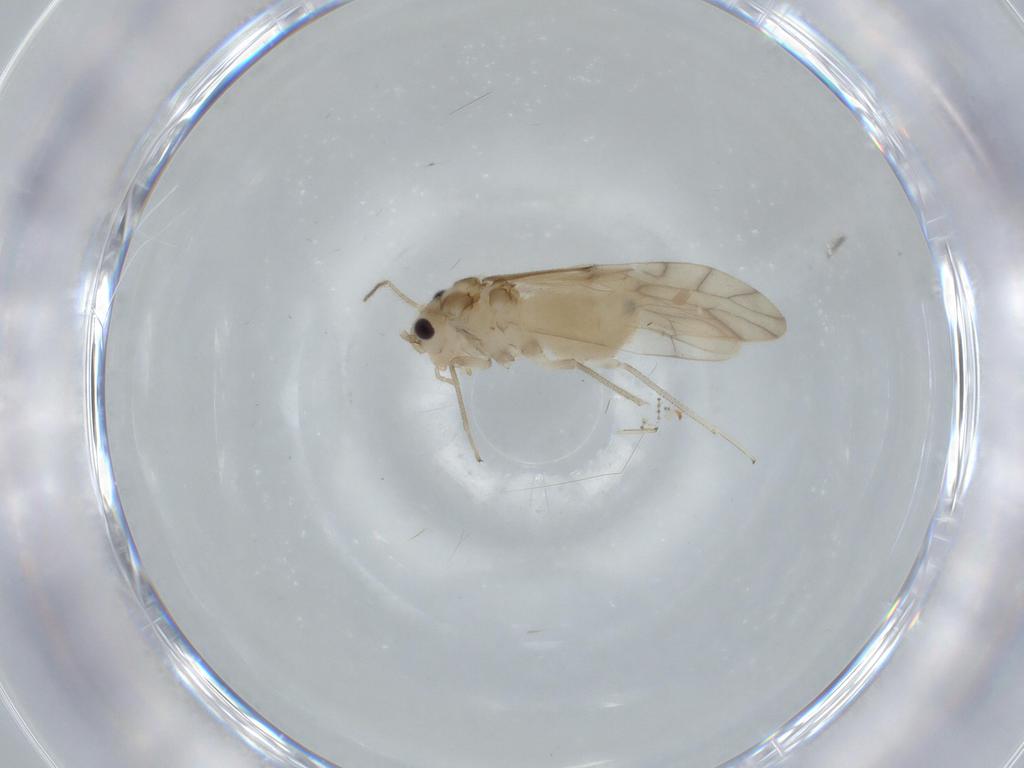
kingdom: Animalia
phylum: Arthropoda
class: Insecta
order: Psocodea
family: Caeciliusidae
